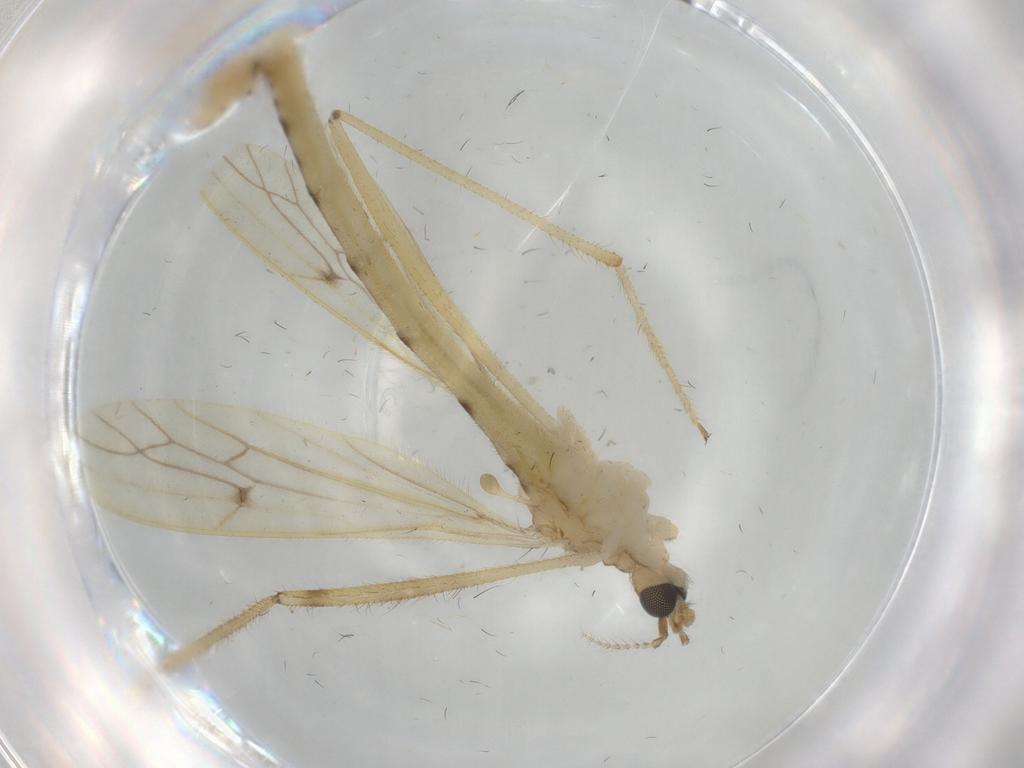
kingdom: Animalia
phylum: Arthropoda
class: Insecta
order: Diptera
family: Limoniidae
